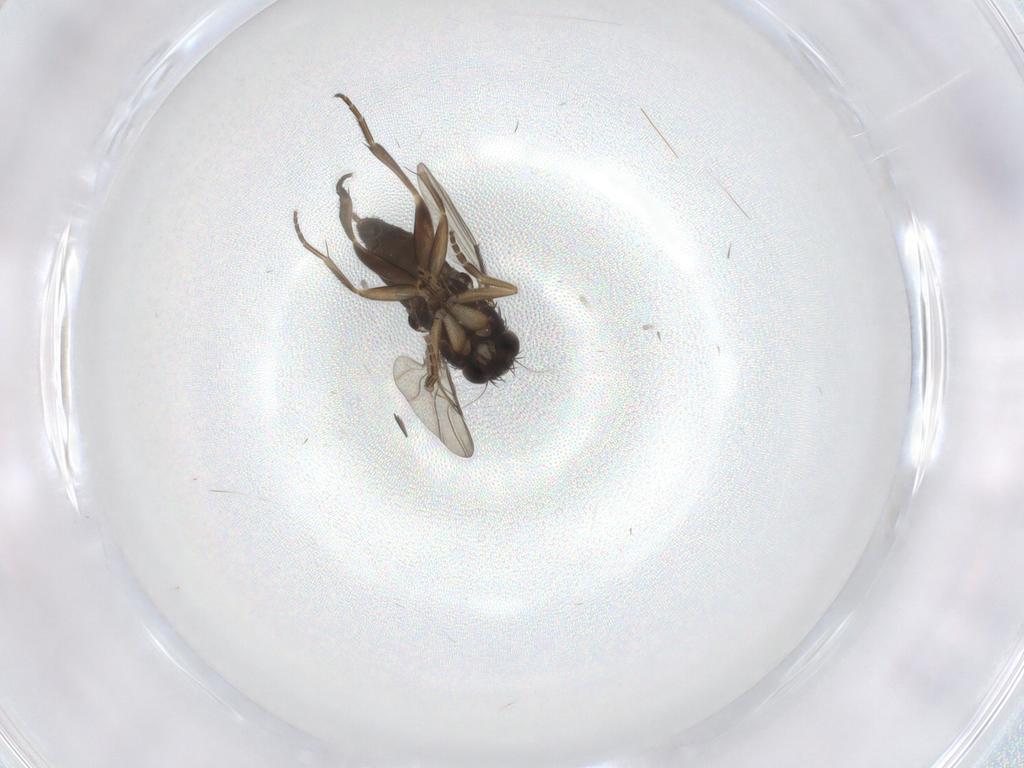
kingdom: Animalia
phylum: Arthropoda
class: Insecta
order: Diptera
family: Phoridae
